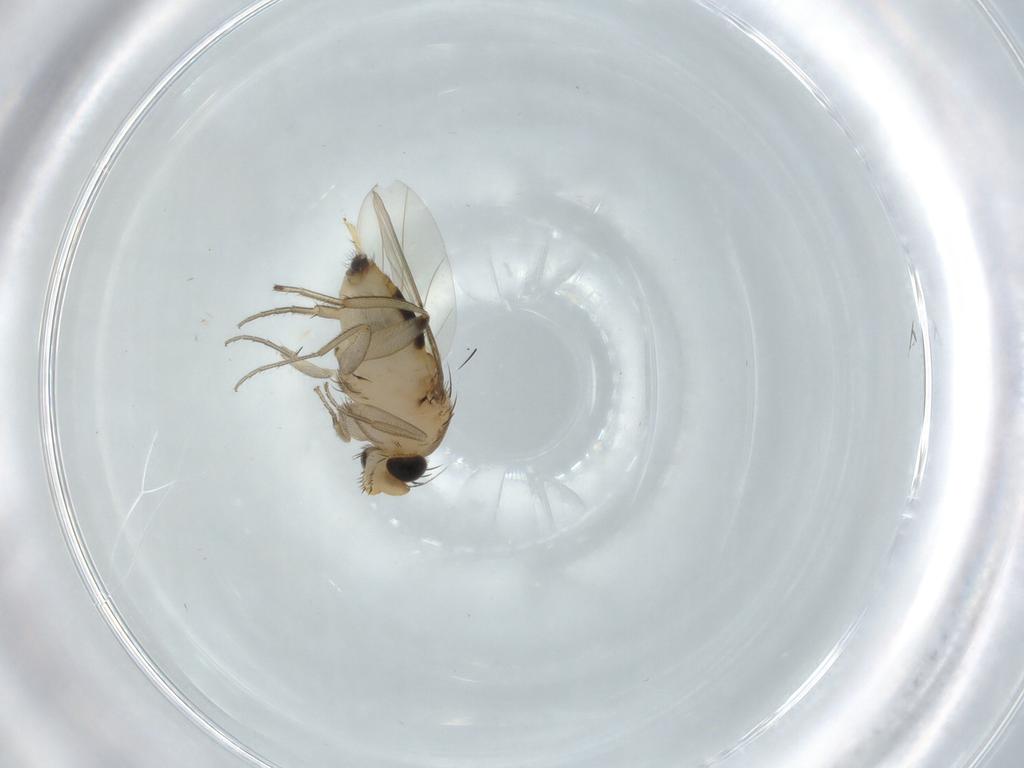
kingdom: Animalia
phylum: Arthropoda
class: Insecta
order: Diptera
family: Phoridae
